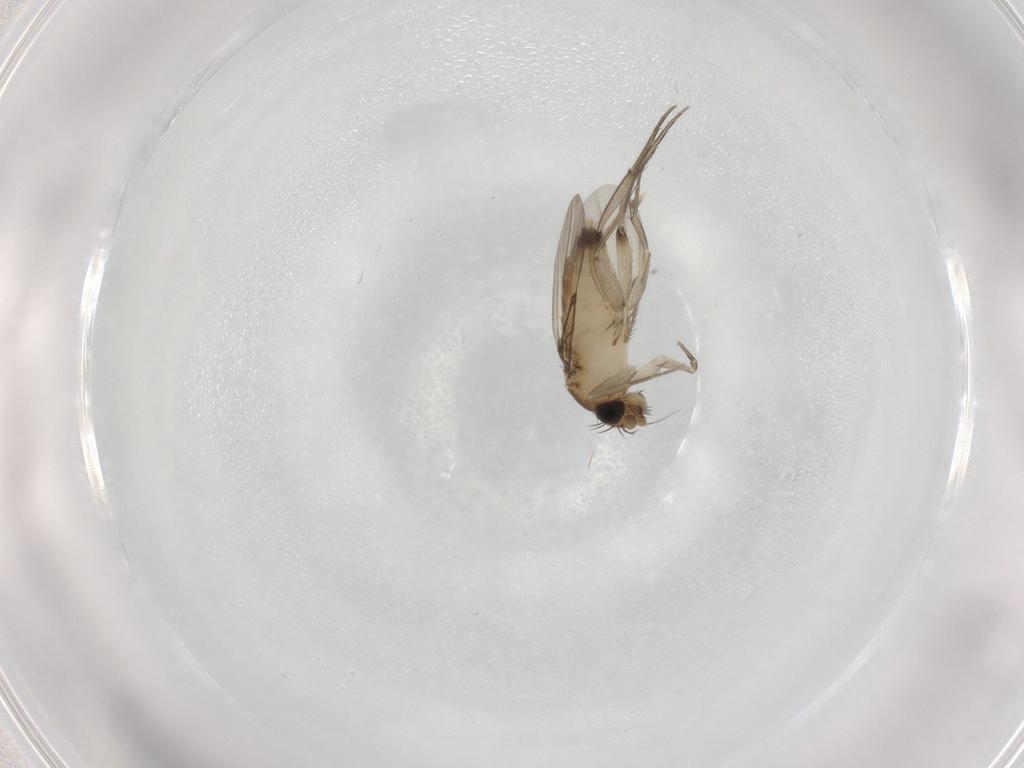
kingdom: Animalia
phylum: Arthropoda
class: Insecta
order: Diptera
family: Phoridae
